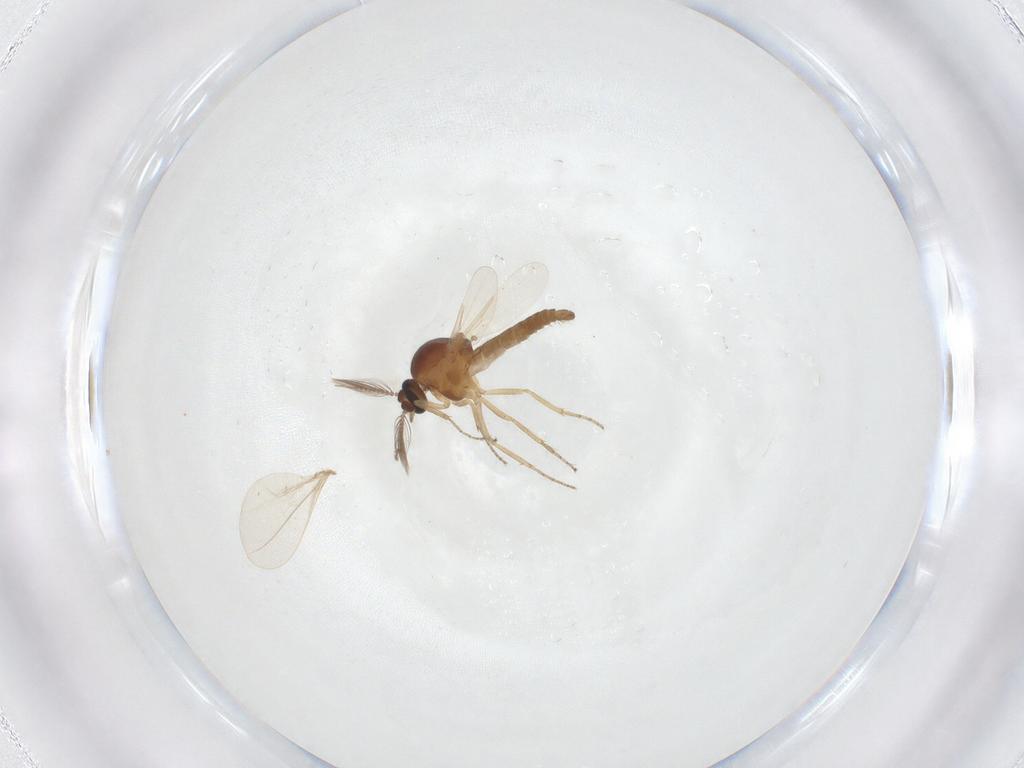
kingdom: Animalia
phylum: Arthropoda
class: Insecta
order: Diptera
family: Ceratopogonidae
